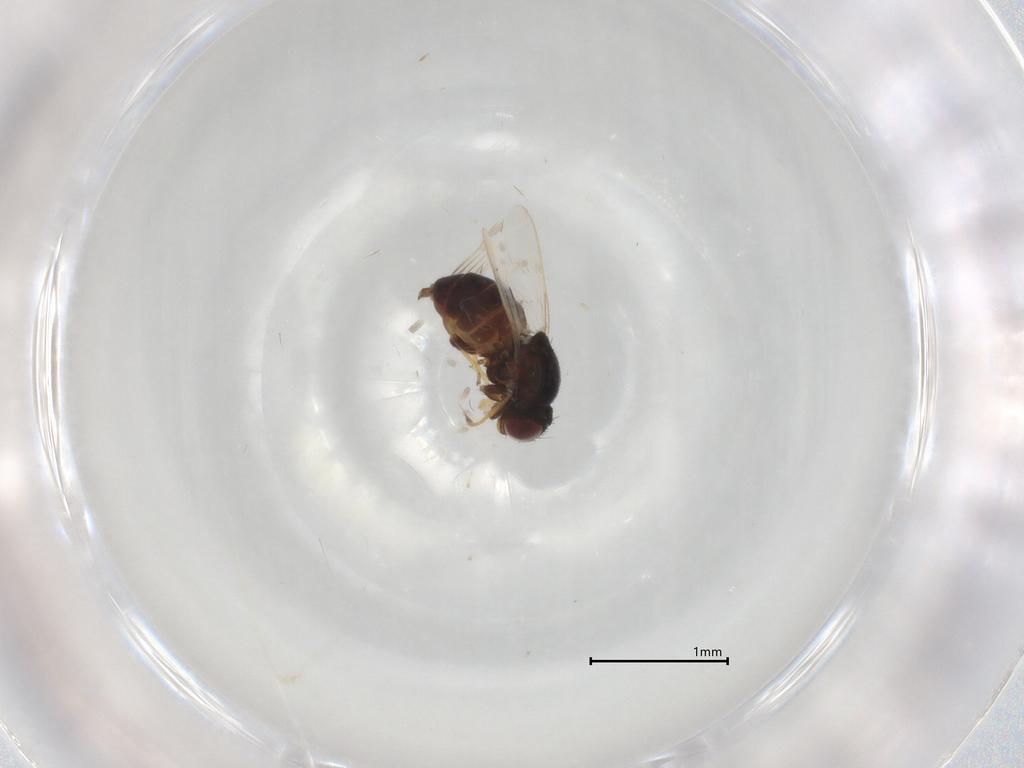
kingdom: Animalia
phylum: Arthropoda
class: Insecta
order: Diptera
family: Chloropidae
